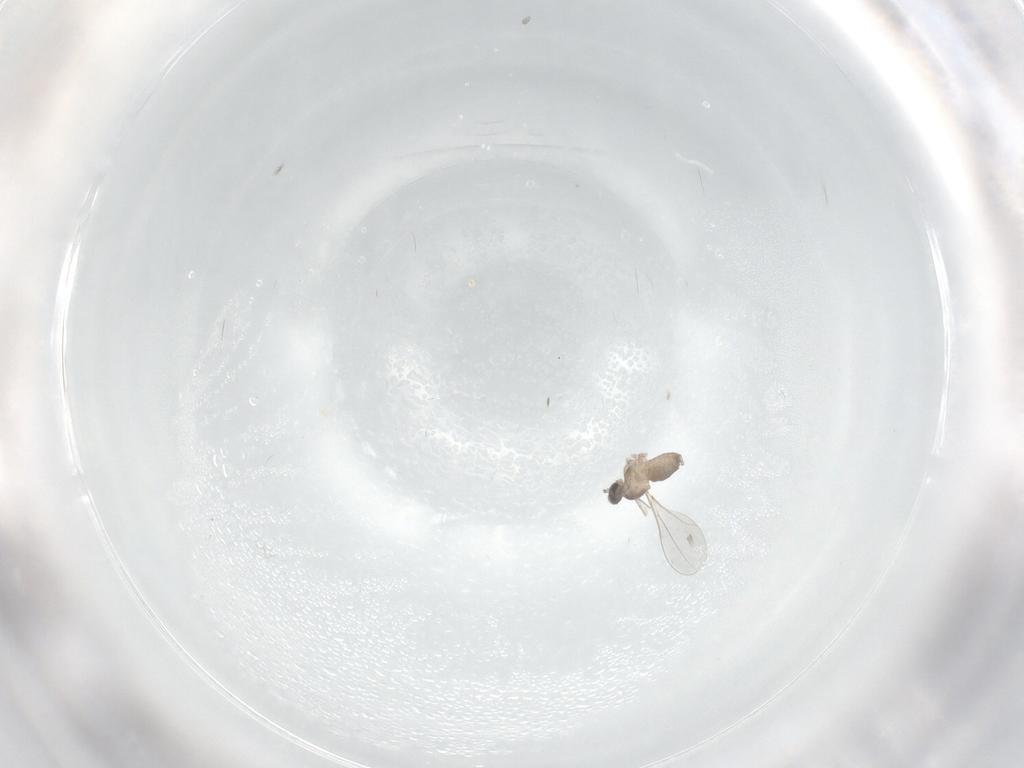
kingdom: Animalia
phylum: Arthropoda
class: Insecta
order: Diptera
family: Cecidomyiidae
